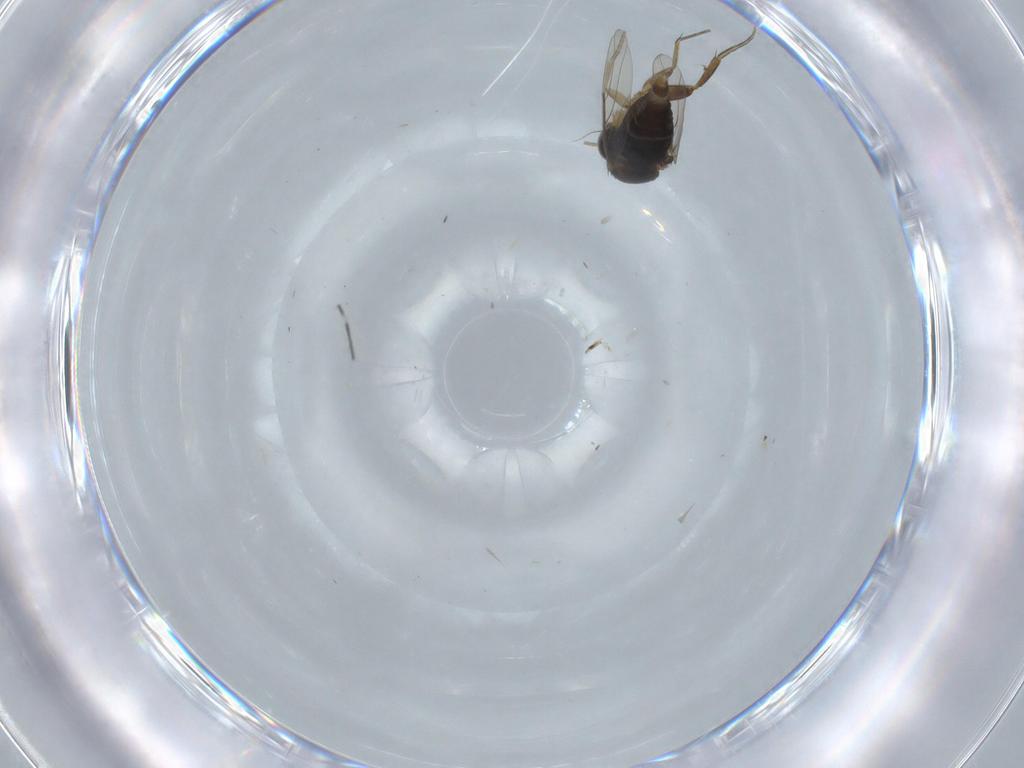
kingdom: Animalia
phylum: Arthropoda
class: Insecta
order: Diptera
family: Phoridae
